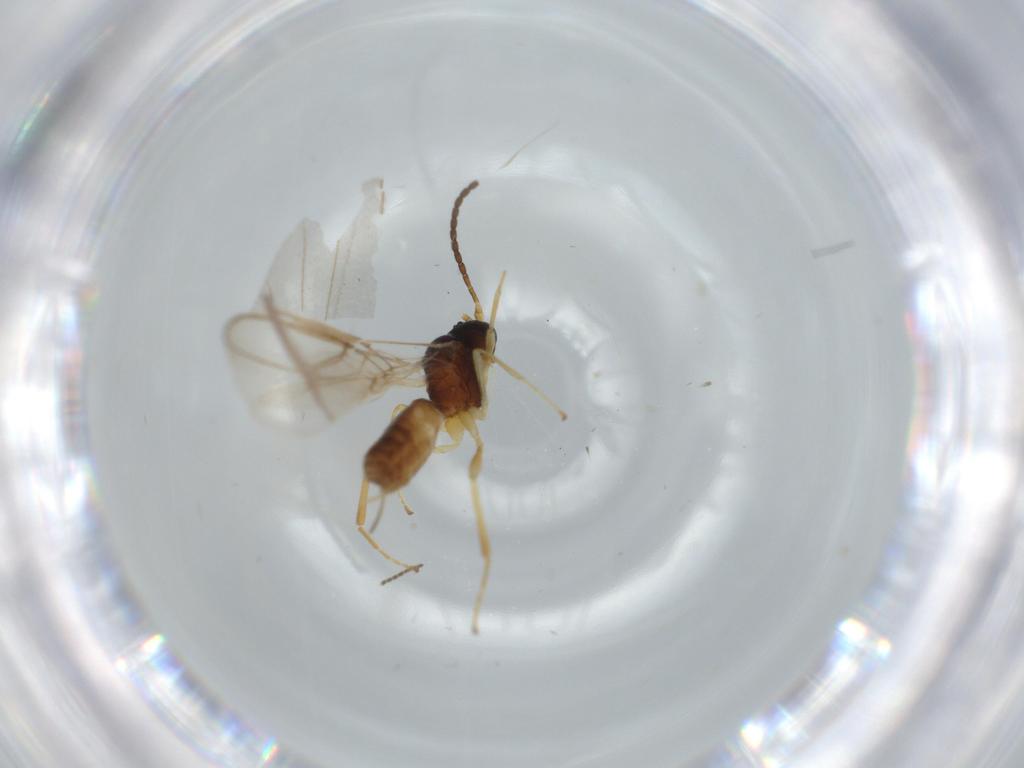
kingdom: Animalia
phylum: Arthropoda
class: Insecta
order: Hymenoptera
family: Braconidae
